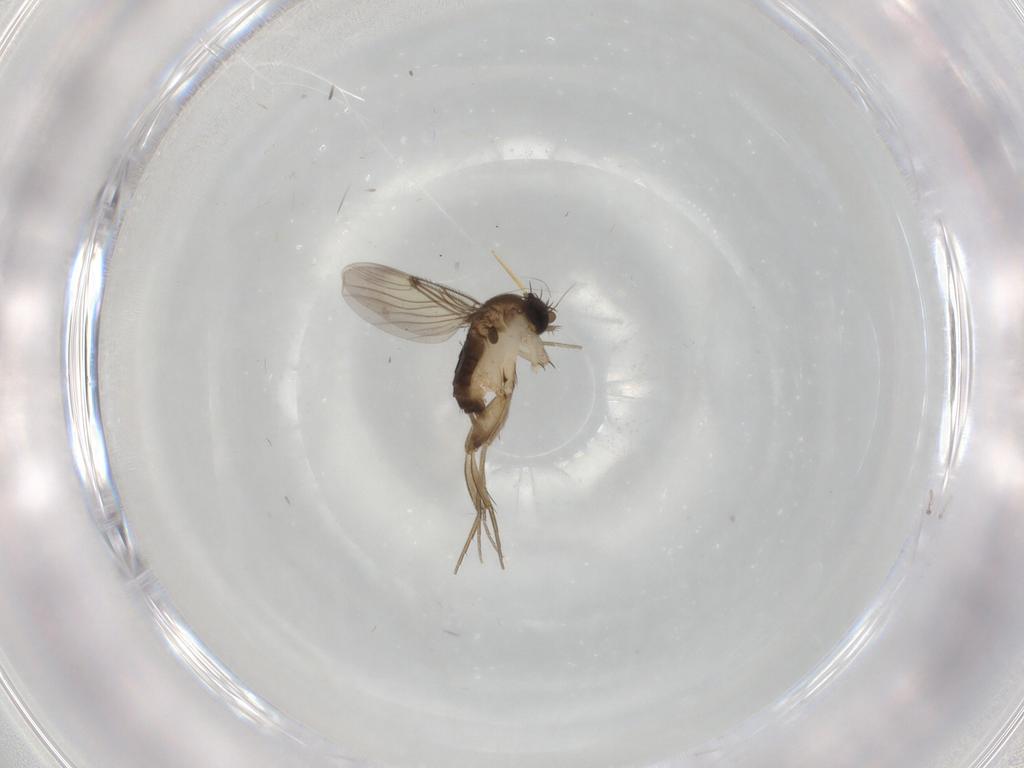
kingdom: Animalia
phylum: Arthropoda
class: Insecta
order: Diptera
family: Phoridae
